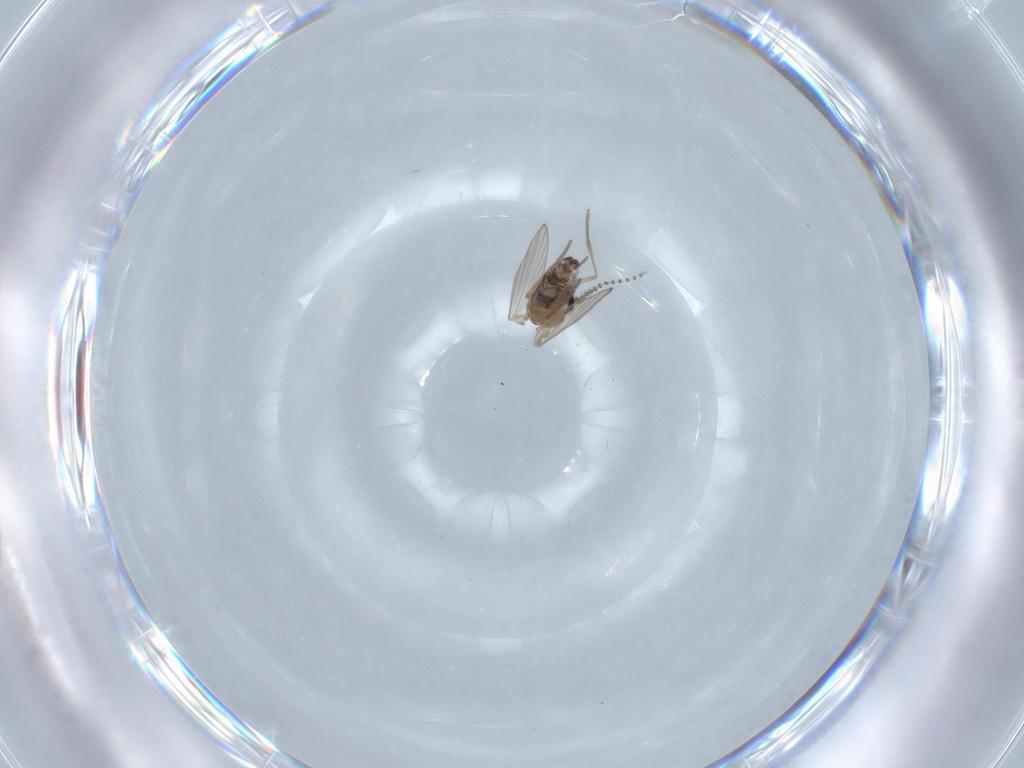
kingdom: Animalia
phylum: Arthropoda
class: Insecta
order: Diptera
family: Psychodidae
